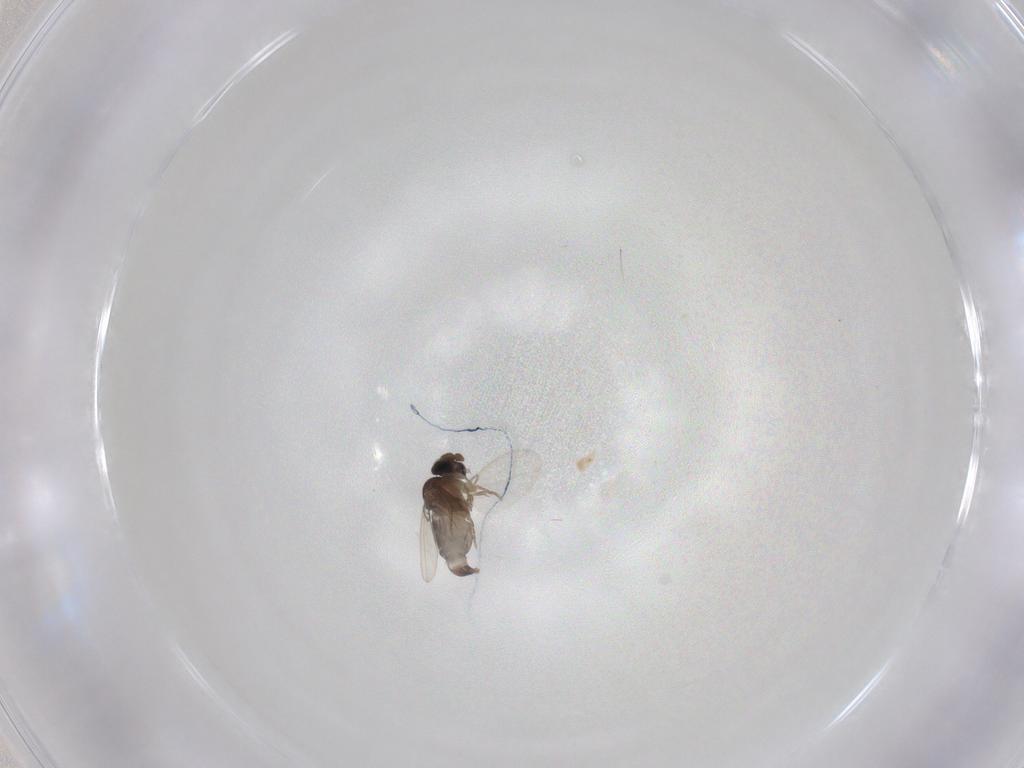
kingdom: Animalia
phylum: Arthropoda
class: Insecta
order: Diptera
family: Phoridae
